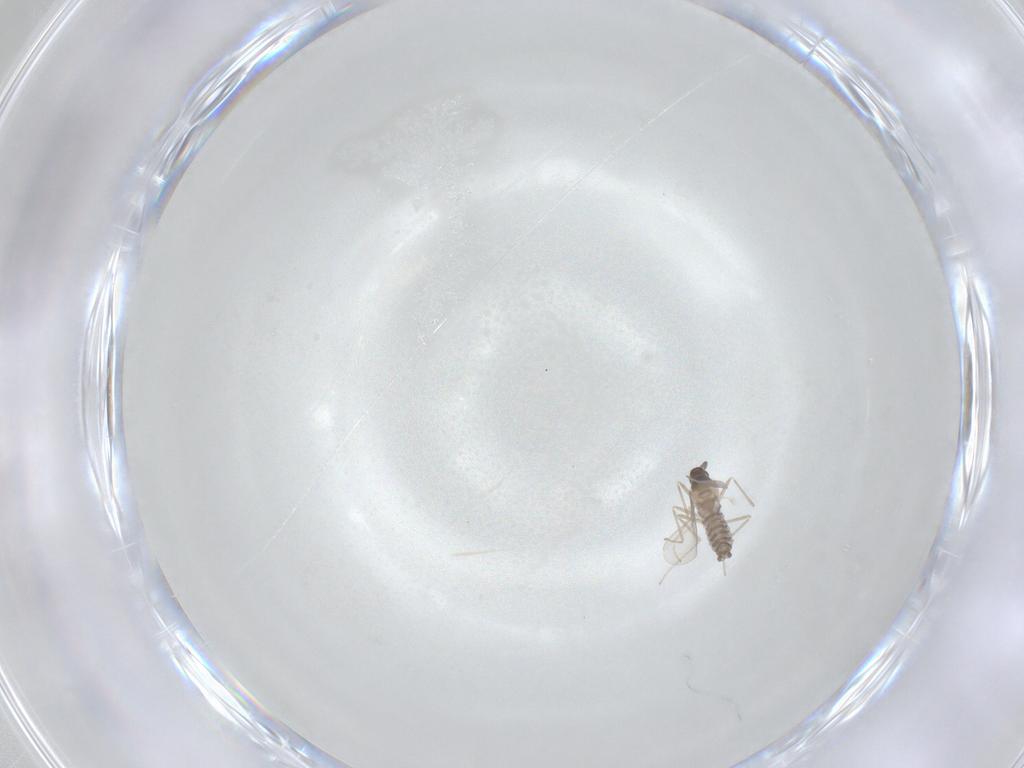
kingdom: Animalia
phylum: Arthropoda
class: Insecta
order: Diptera
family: Cecidomyiidae
